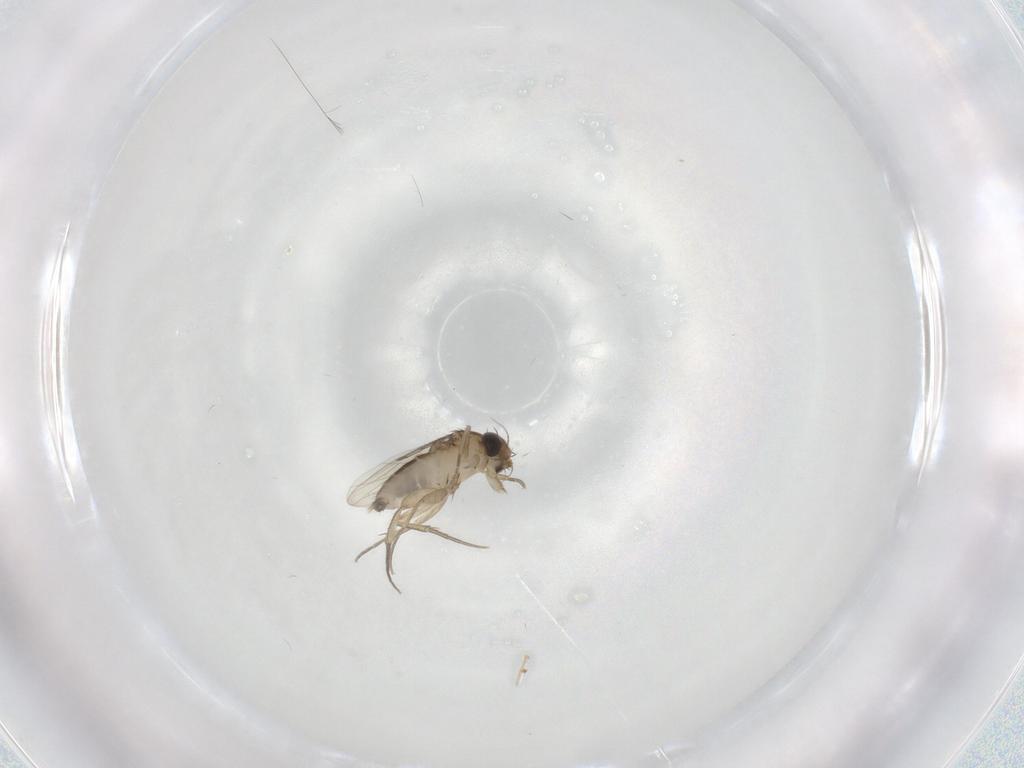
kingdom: Animalia
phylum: Arthropoda
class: Insecta
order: Diptera
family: Phoridae
